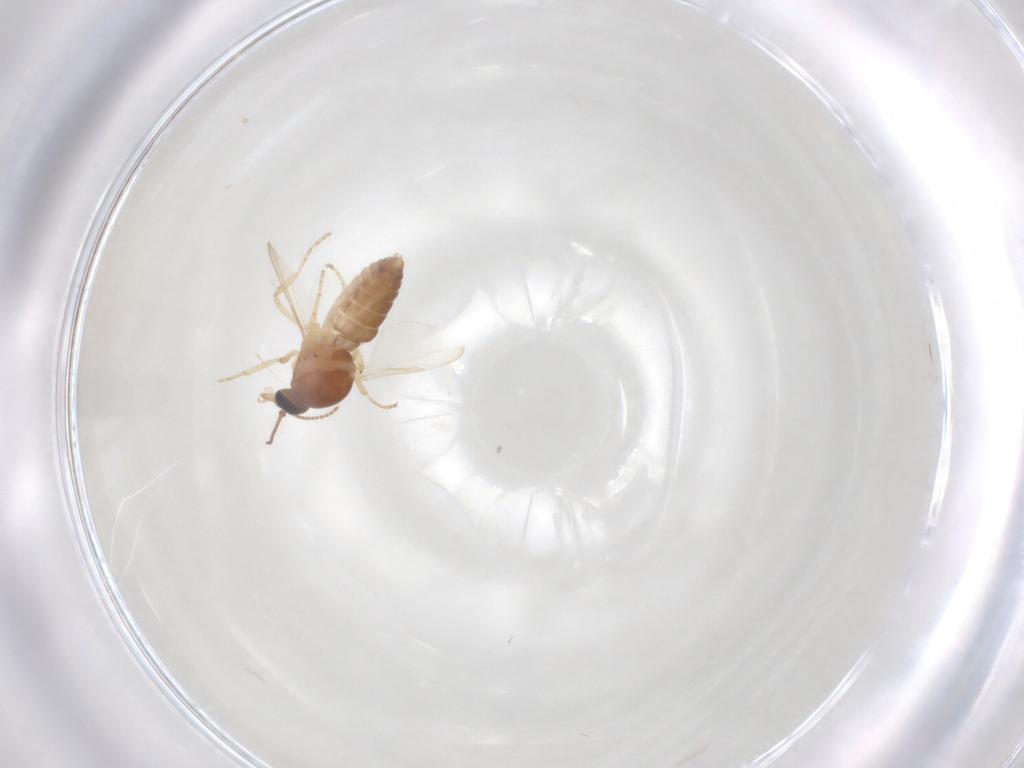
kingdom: Animalia
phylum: Arthropoda
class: Insecta
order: Diptera
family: Ceratopogonidae
